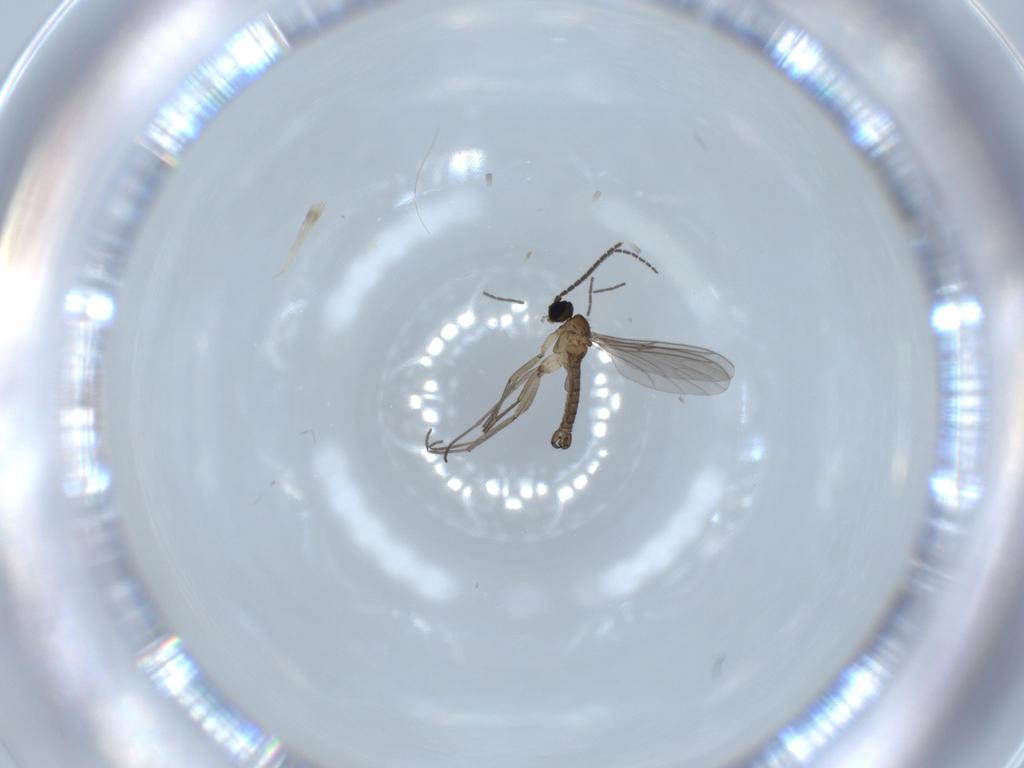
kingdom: Animalia
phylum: Arthropoda
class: Insecta
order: Diptera
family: Sciaridae
